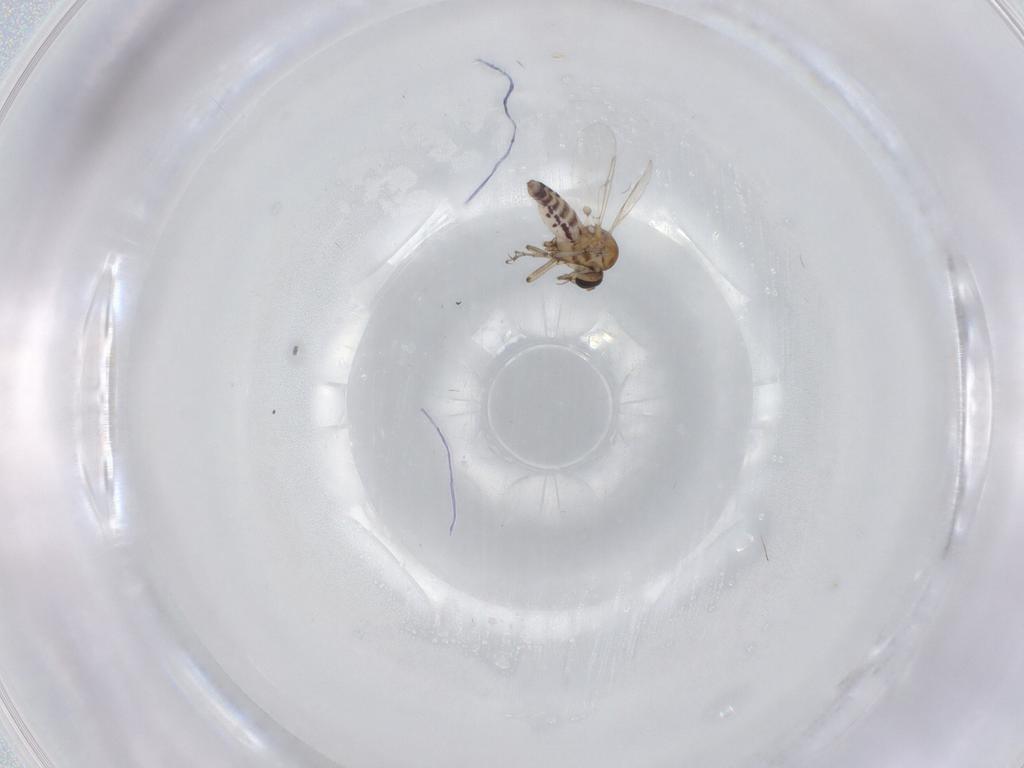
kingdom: Animalia
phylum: Arthropoda
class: Insecta
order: Diptera
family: Ceratopogonidae
